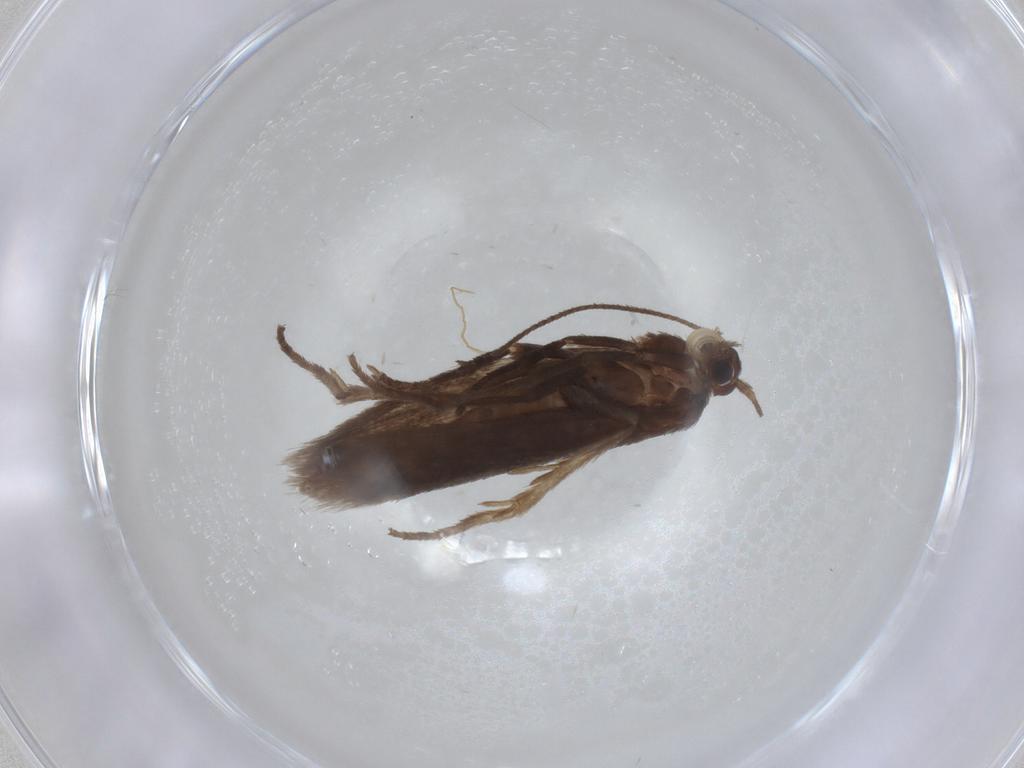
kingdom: Animalia
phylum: Arthropoda
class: Insecta
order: Lepidoptera
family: Limacodidae
